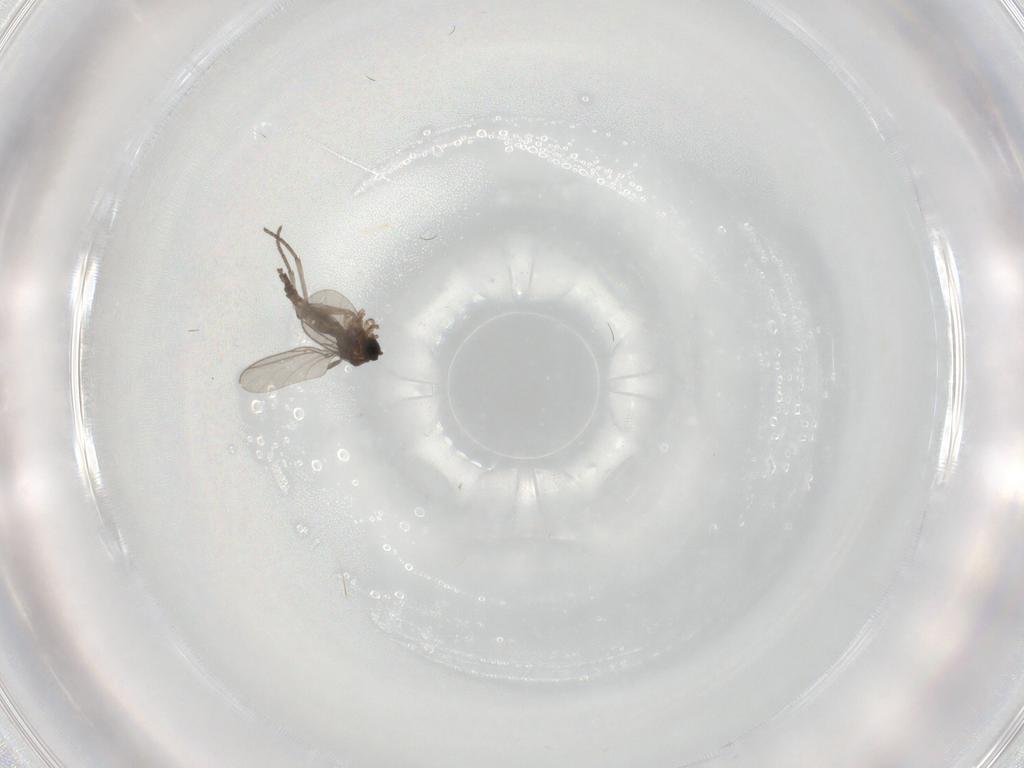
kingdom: Animalia
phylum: Arthropoda
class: Insecta
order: Diptera
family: Sciaridae
